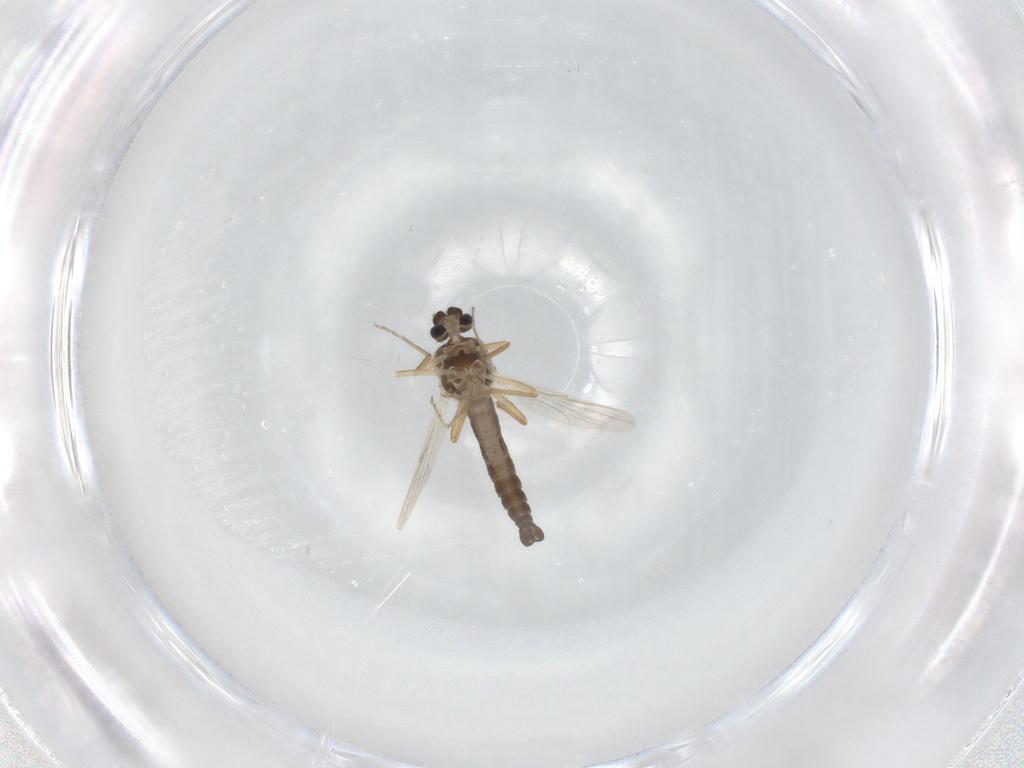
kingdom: Animalia
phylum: Arthropoda
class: Insecta
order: Diptera
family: Ceratopogonidae
